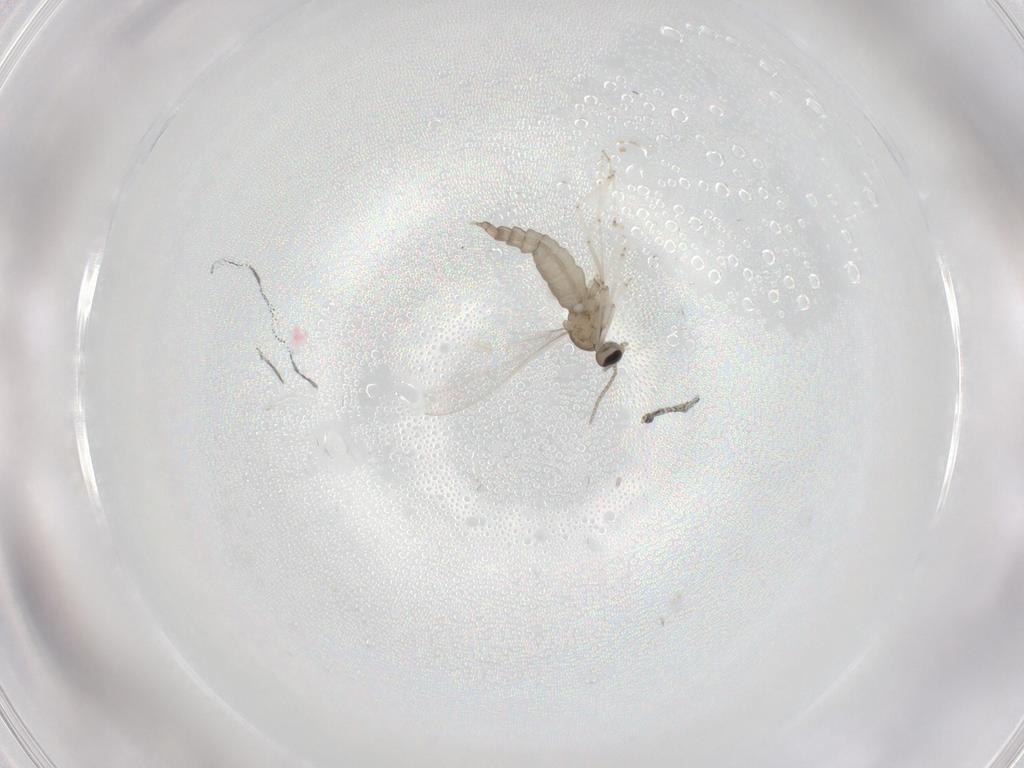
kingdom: Animalia
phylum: Arthropoda
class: Insecta
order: Diptera
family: Cecidomyiidae
